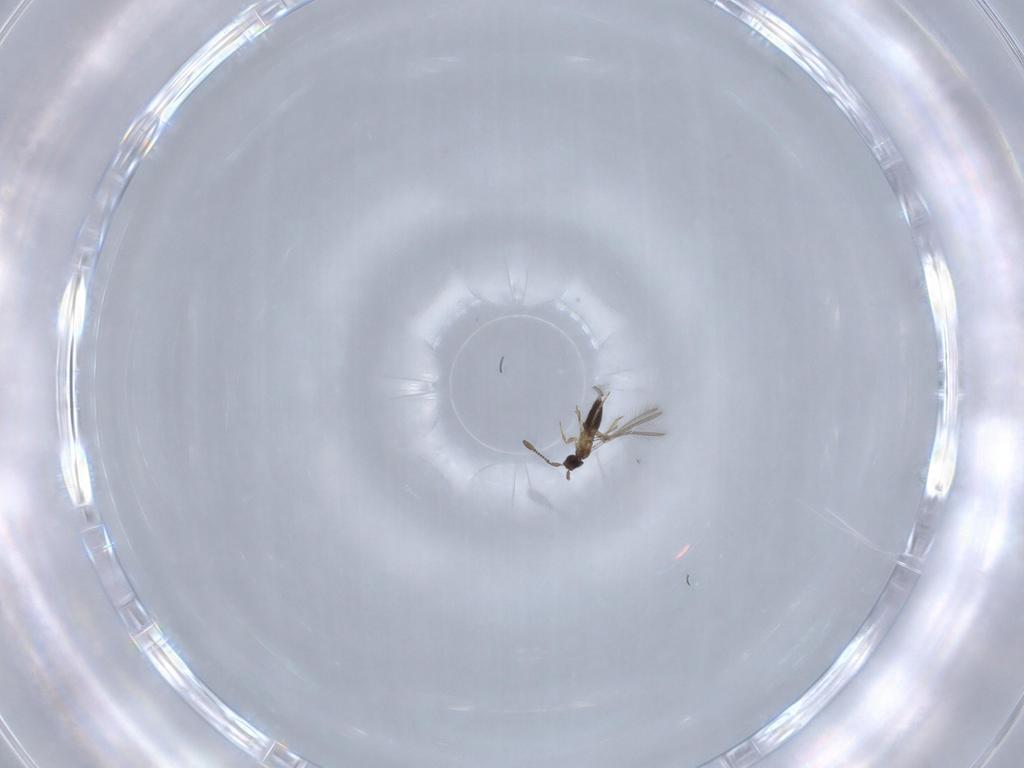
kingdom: Animalia
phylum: Arthropoda
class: Insecta
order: Hymenoptera
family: Mymaridae
